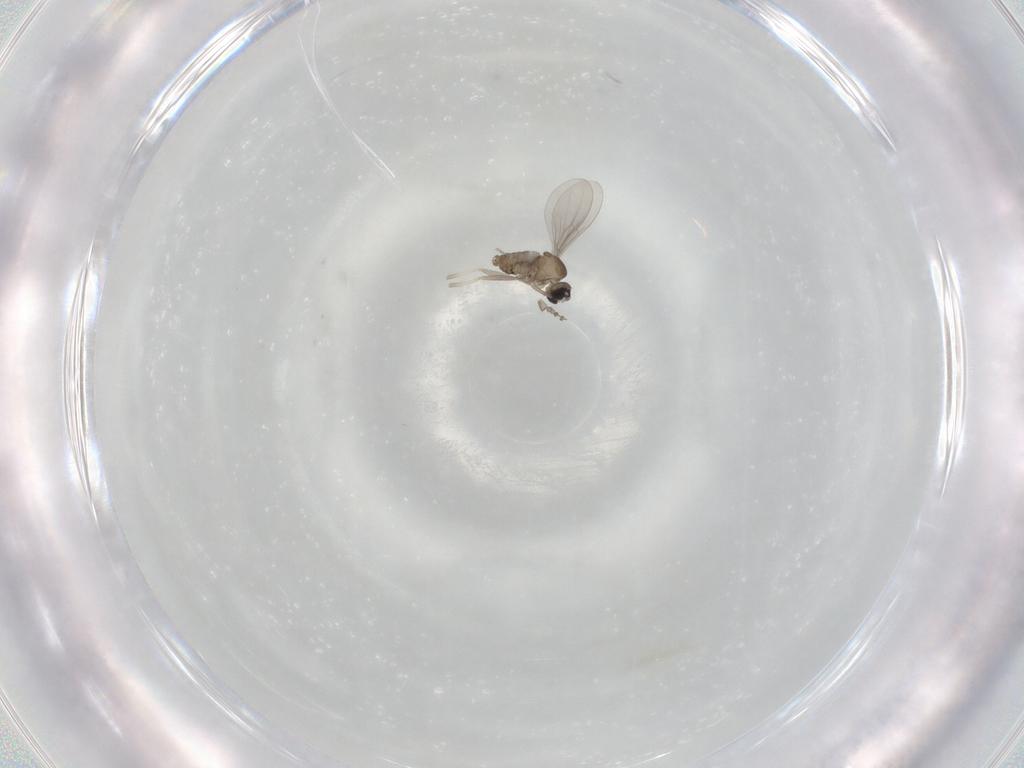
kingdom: Animalia
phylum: Arthropoda
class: Insecta
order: Diptera
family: Cecidomyiidae
